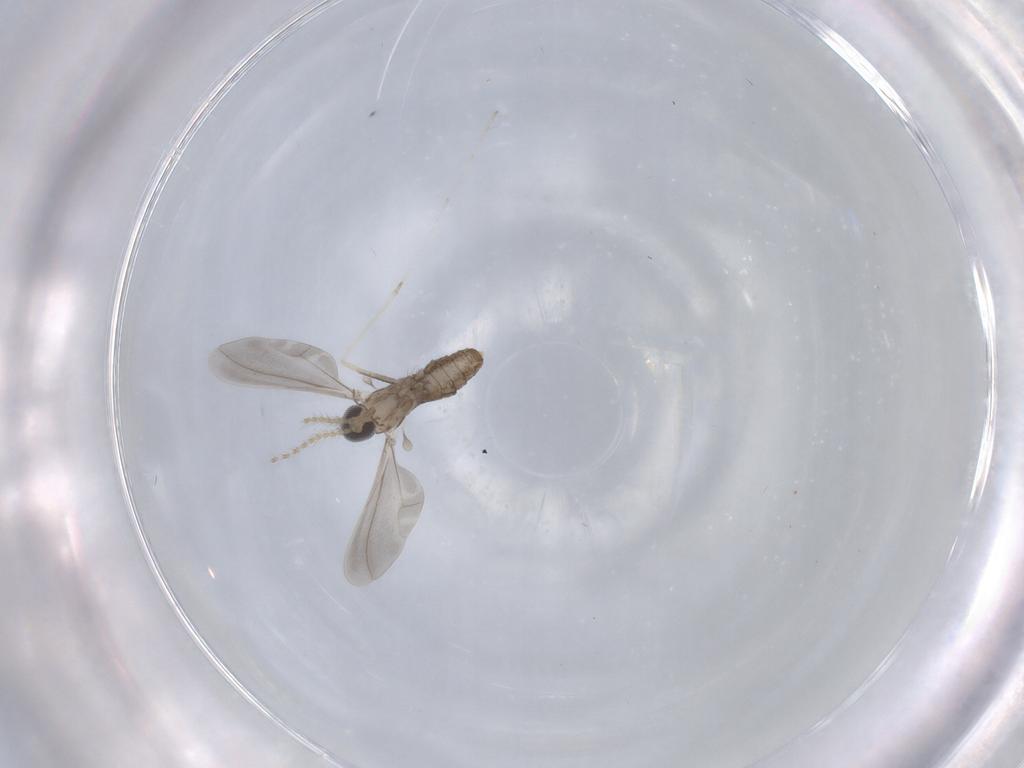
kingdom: Animalia
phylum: Arthropoda
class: Insecta
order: Diptera
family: Cecidomyiidae
